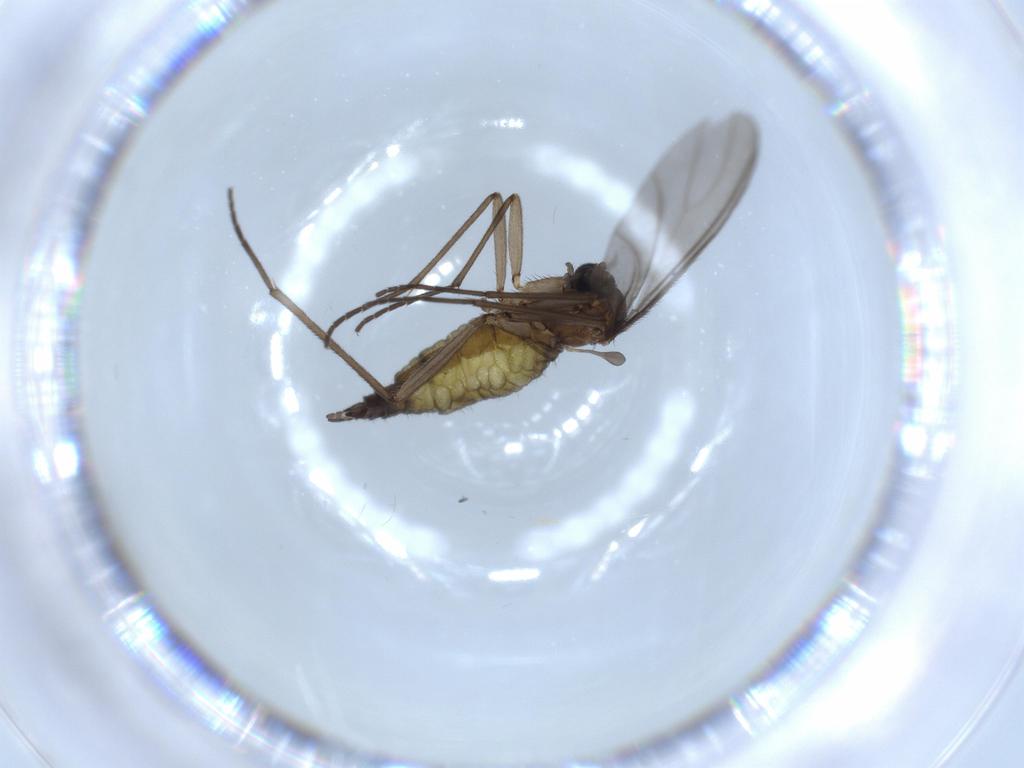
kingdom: Animalia
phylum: Arthropoda
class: Insecta
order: Diptera
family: Sciaridae
